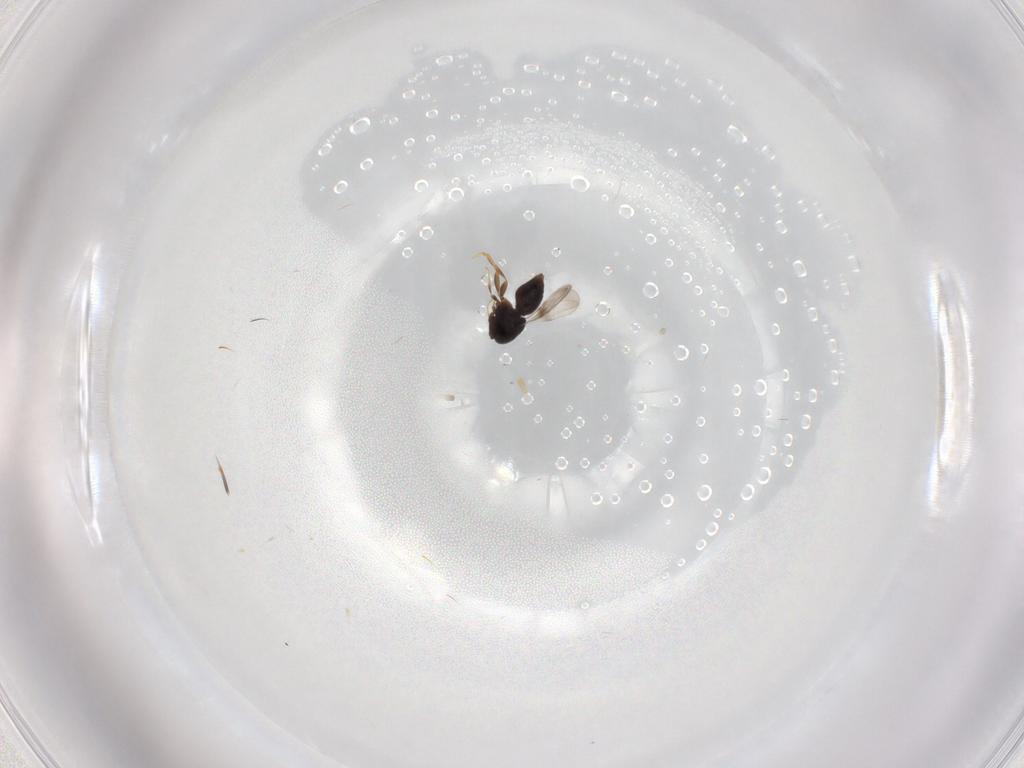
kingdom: Animalia
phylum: Arthropoda
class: Insecta
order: Hymenoptera
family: Ceraphronidae
